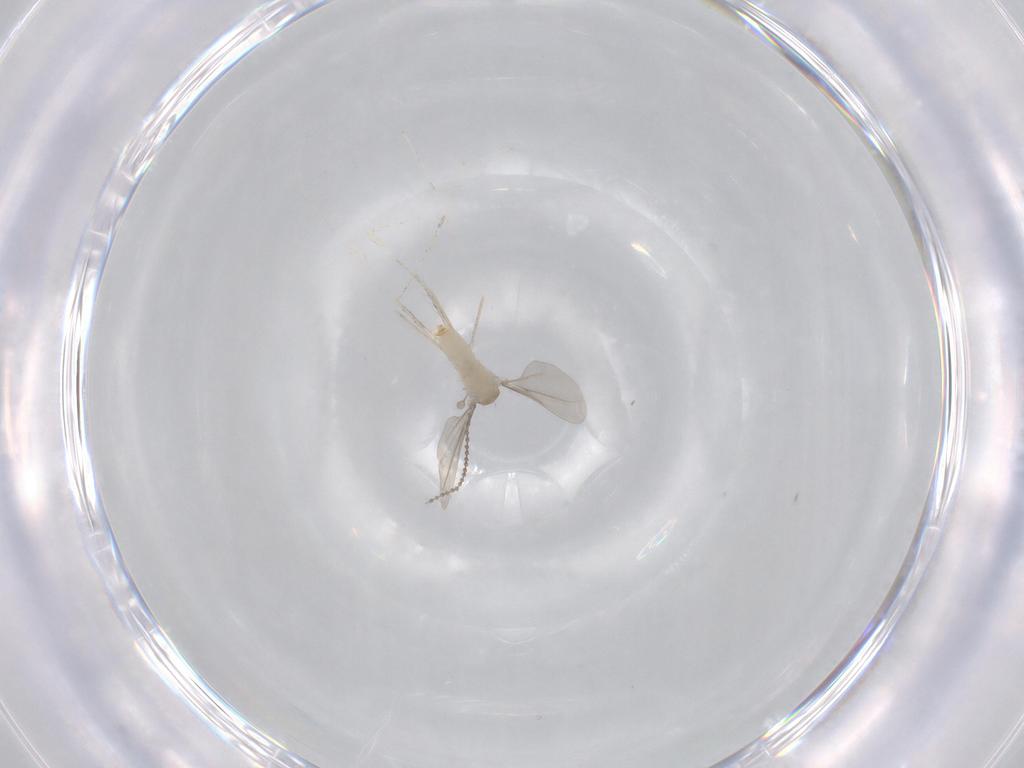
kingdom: Animalia
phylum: Arthropoda
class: Insecta
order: Diptera
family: Cecidomyiidae
